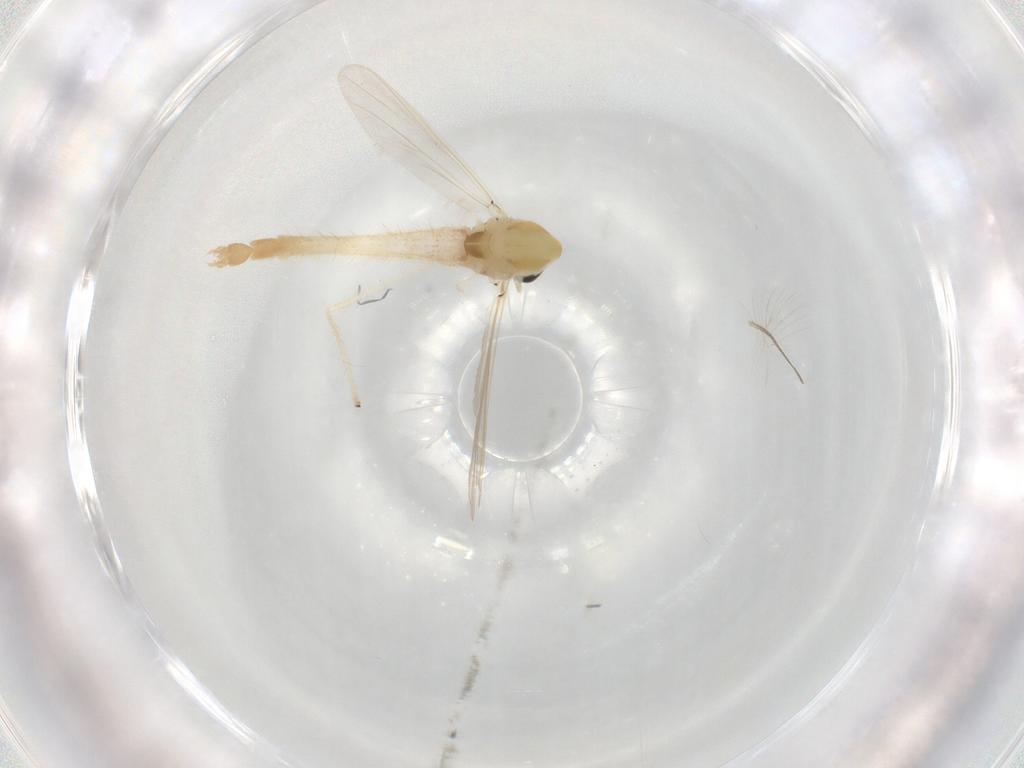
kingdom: Animalia
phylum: Arthropoda
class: Insecta
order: Diptera
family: Chironomidae
